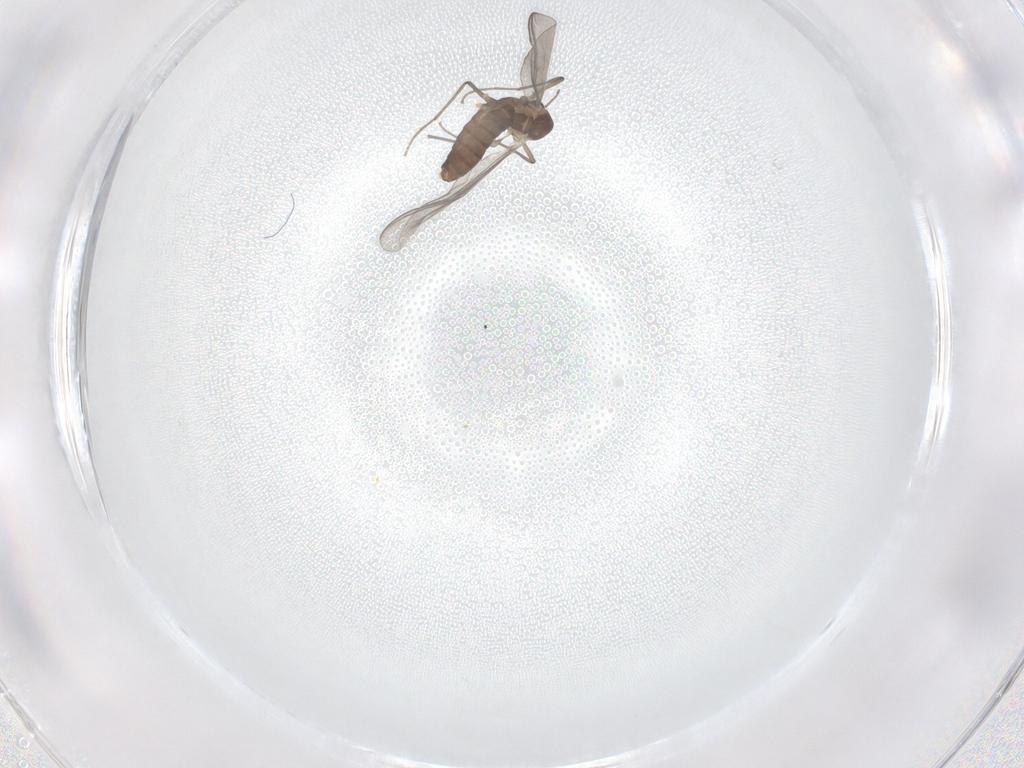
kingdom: Animalia
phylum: Arthropoda
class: Insecta
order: Diptera
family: Chironomidae
